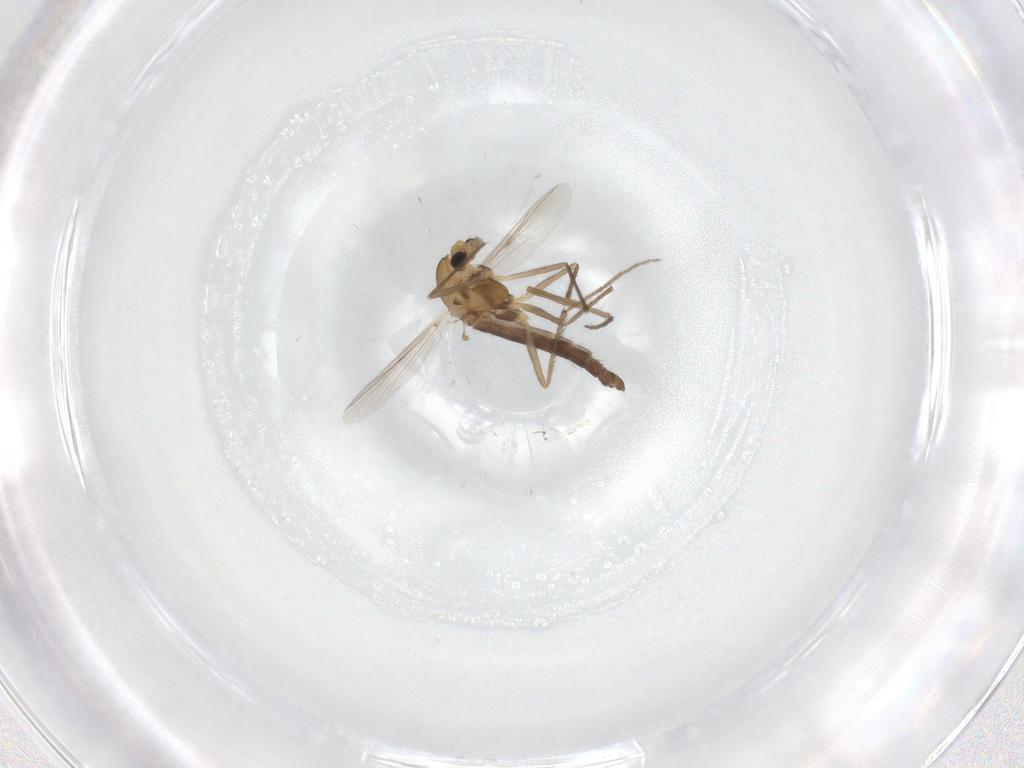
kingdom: Animalia
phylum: Arthropoda
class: Insecta
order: Diptera
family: Chironomidae
